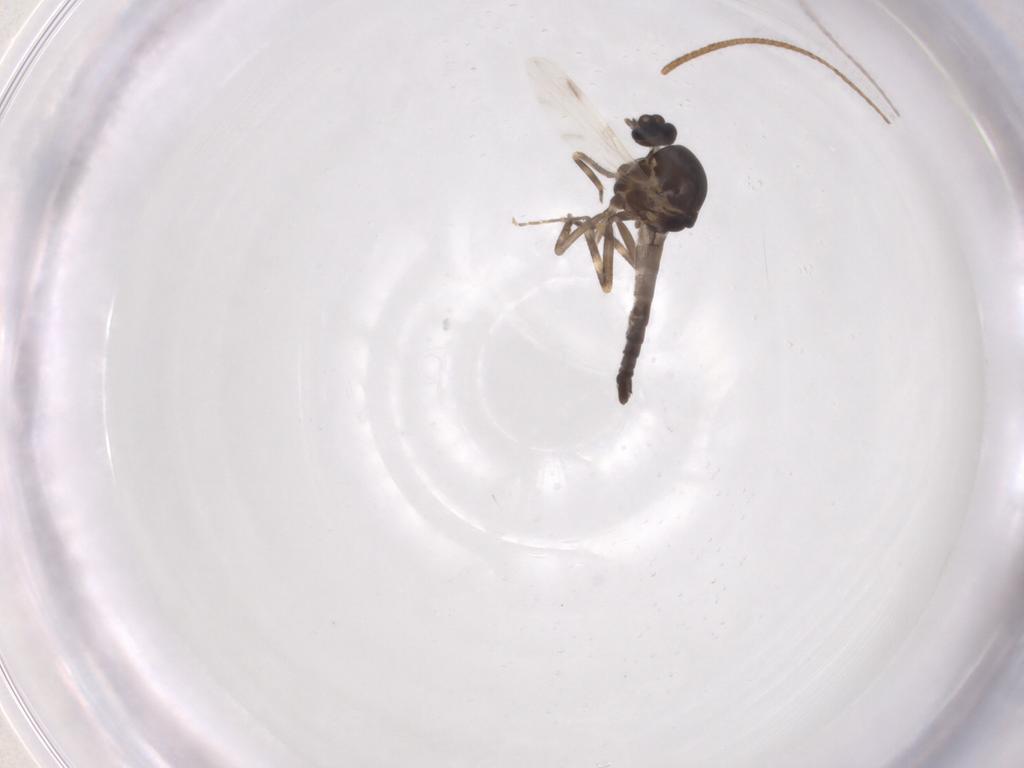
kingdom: Animalia
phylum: Arthropoda
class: Insecta
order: Diptera
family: Ceratopogonidae
